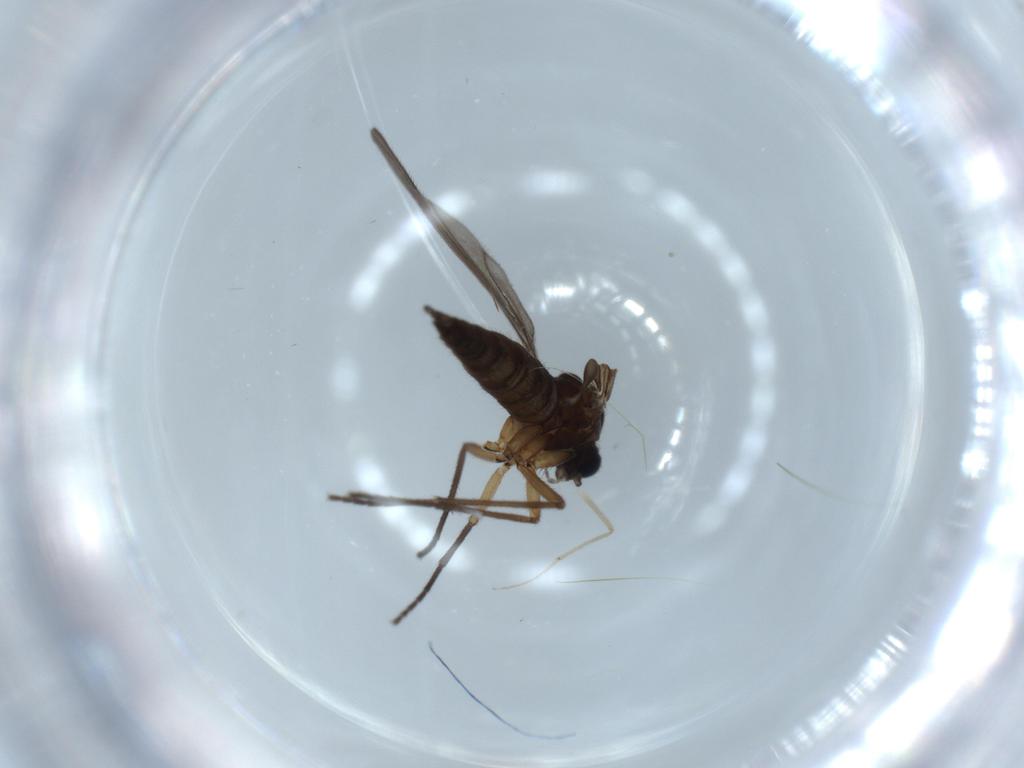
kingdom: Animalia
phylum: Arthropoda
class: Insecta
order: Diptera
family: Sciaridae
